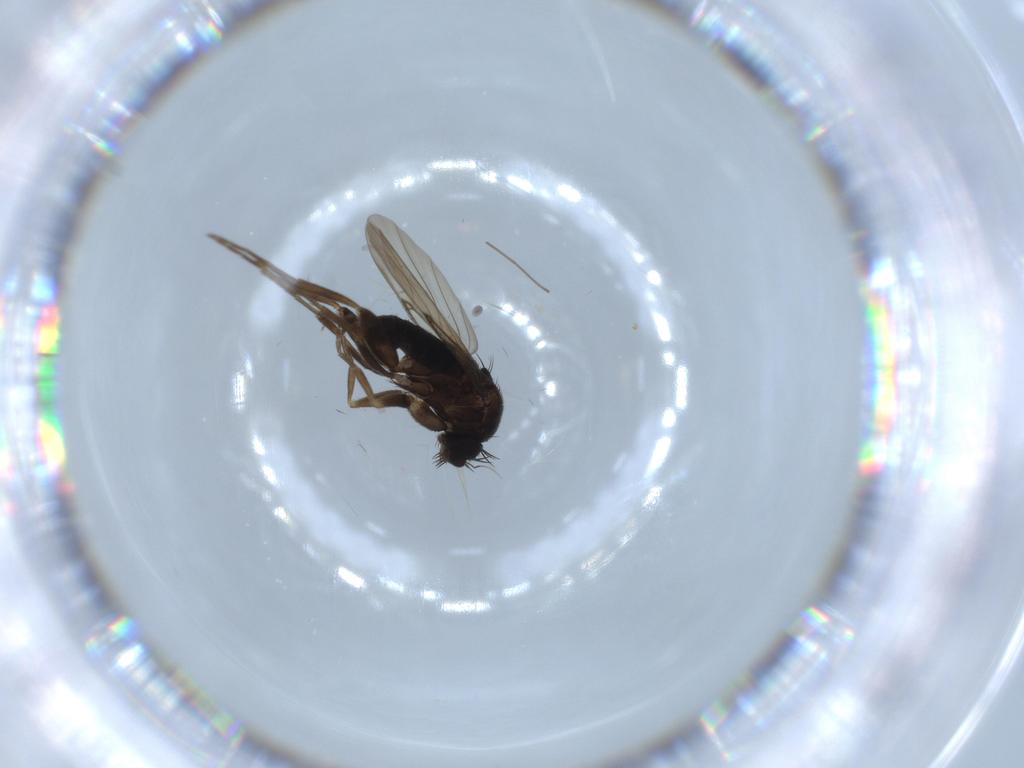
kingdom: Animalia
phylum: Arthropoda
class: Insecta
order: Diptera
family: Phoridae
